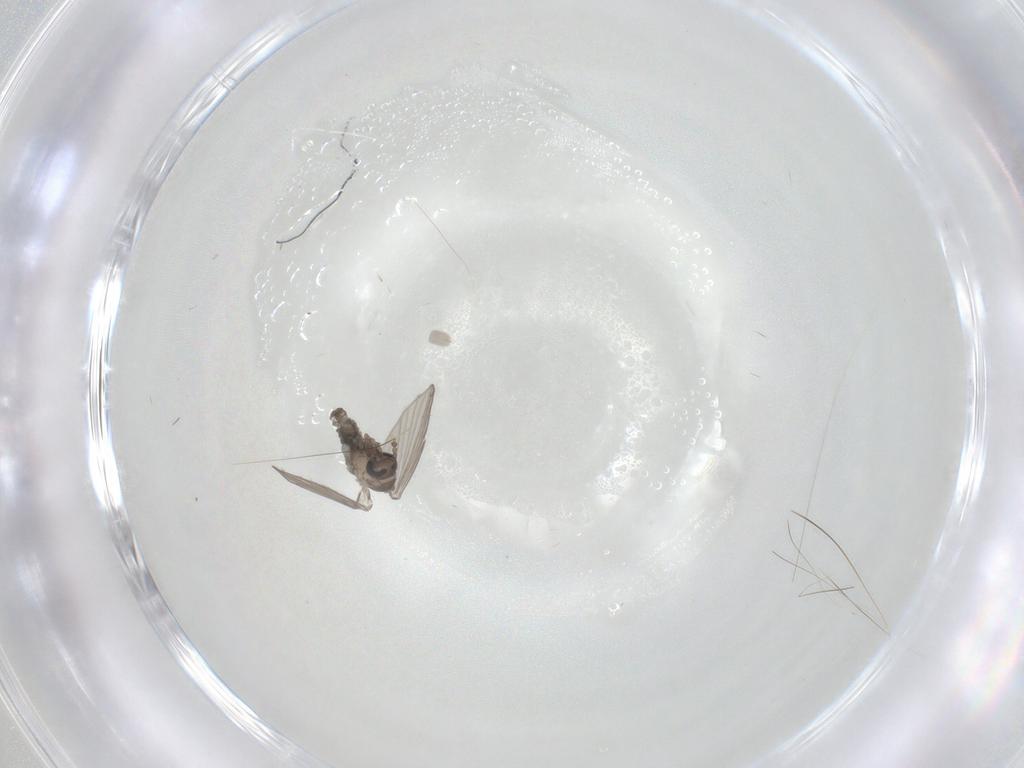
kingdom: Animalia
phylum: Arthropoda
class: Insecta
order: Diptera
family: Psychodidae
